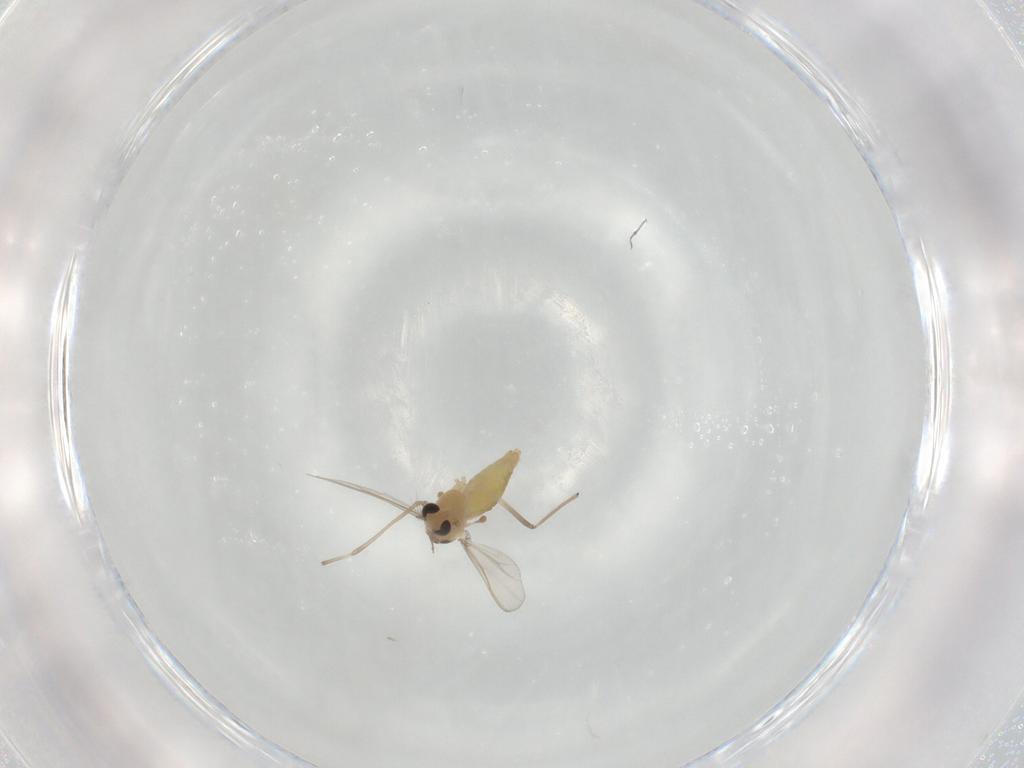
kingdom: Animalia
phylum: Arthropoda
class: Insecta
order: Diptera
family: Chironomidae
